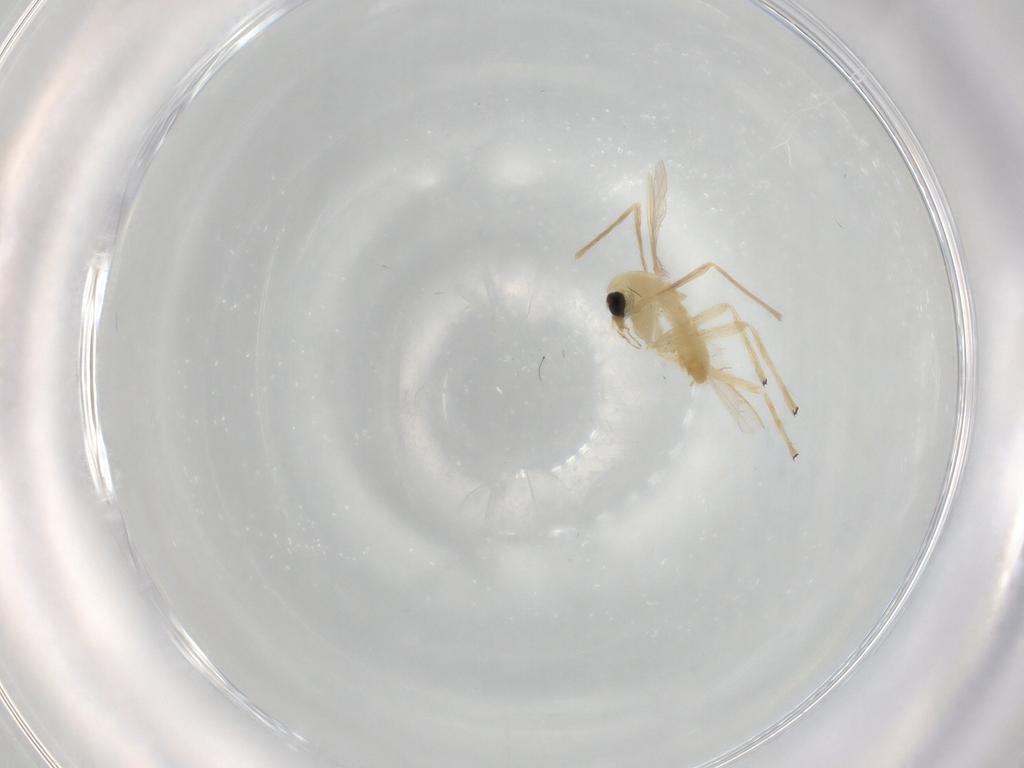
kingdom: Animalia
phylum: Arthropoda
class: Insecta
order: Diptera
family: Chironomidae
